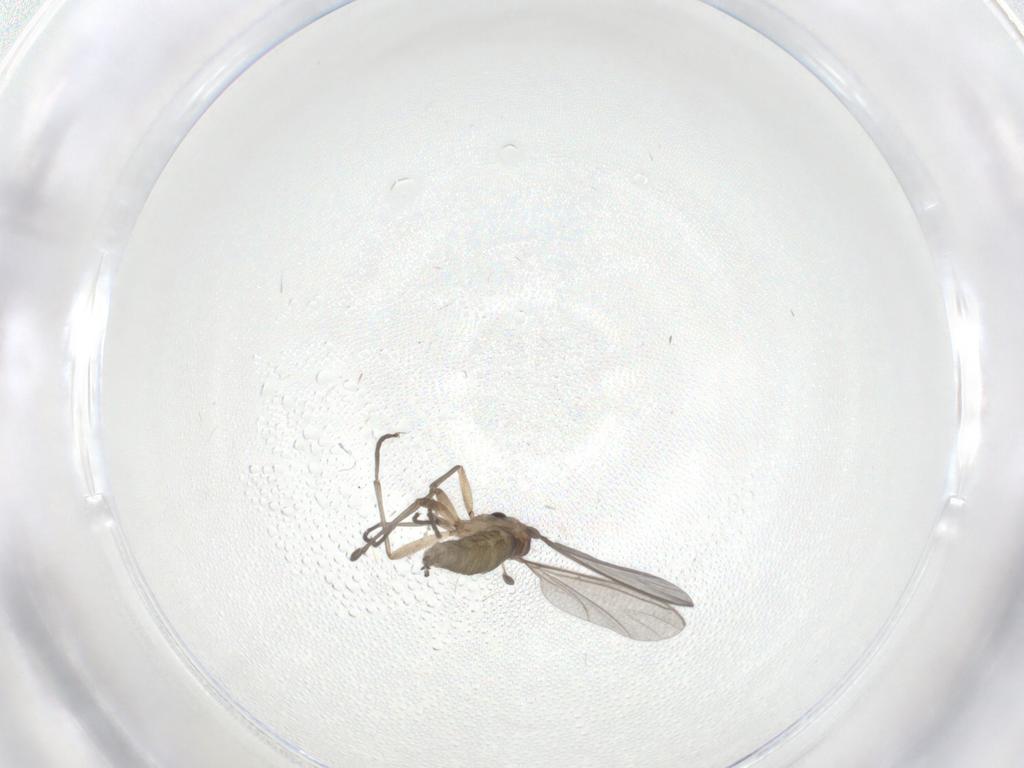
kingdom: Animalia
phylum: Arthropoda
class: Insecta
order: Diptera
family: Sciaridae
